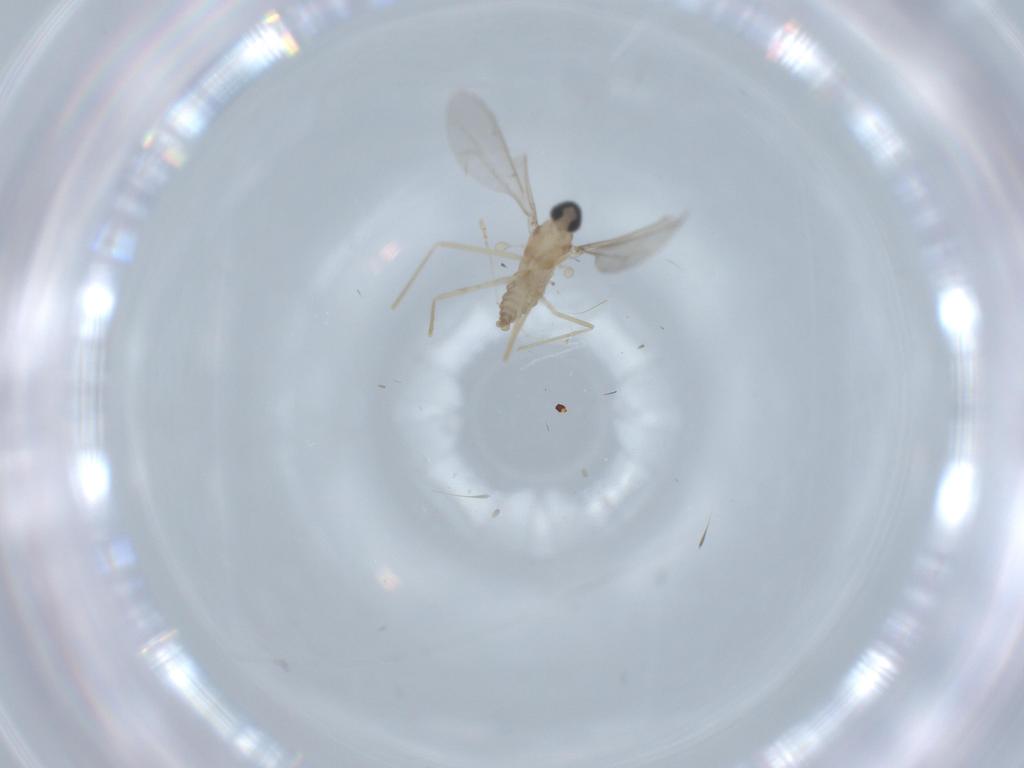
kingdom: Animalia
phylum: Arthropoda
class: Insecta
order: Diptera
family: Cecidomyiidae
